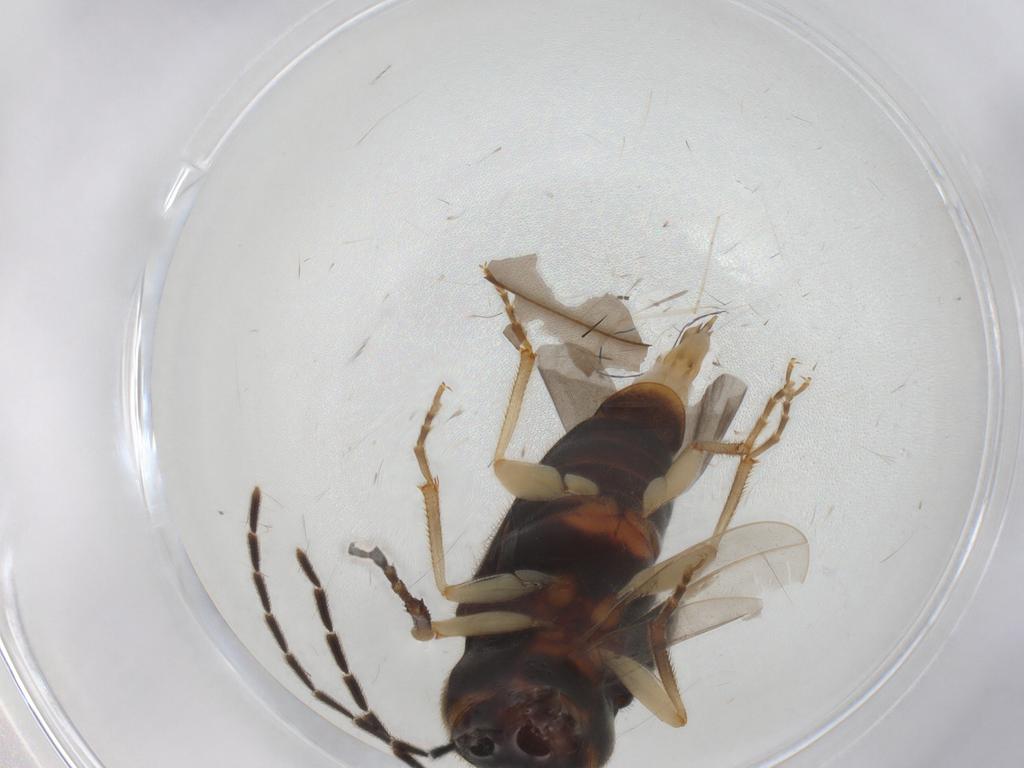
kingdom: Animalia
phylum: Arthropoda
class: Insecta
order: Coleoptera
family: Elateridae
